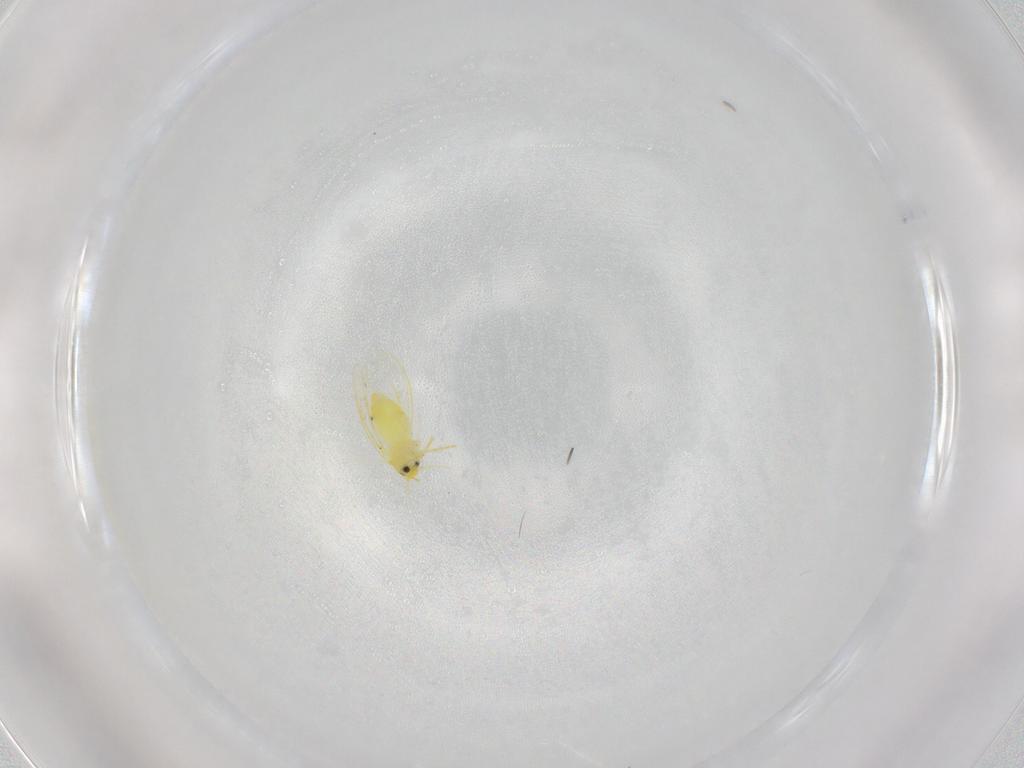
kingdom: Animalia
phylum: Arthropoda
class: Insecta
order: Hemiptera
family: Aleyrodidae
